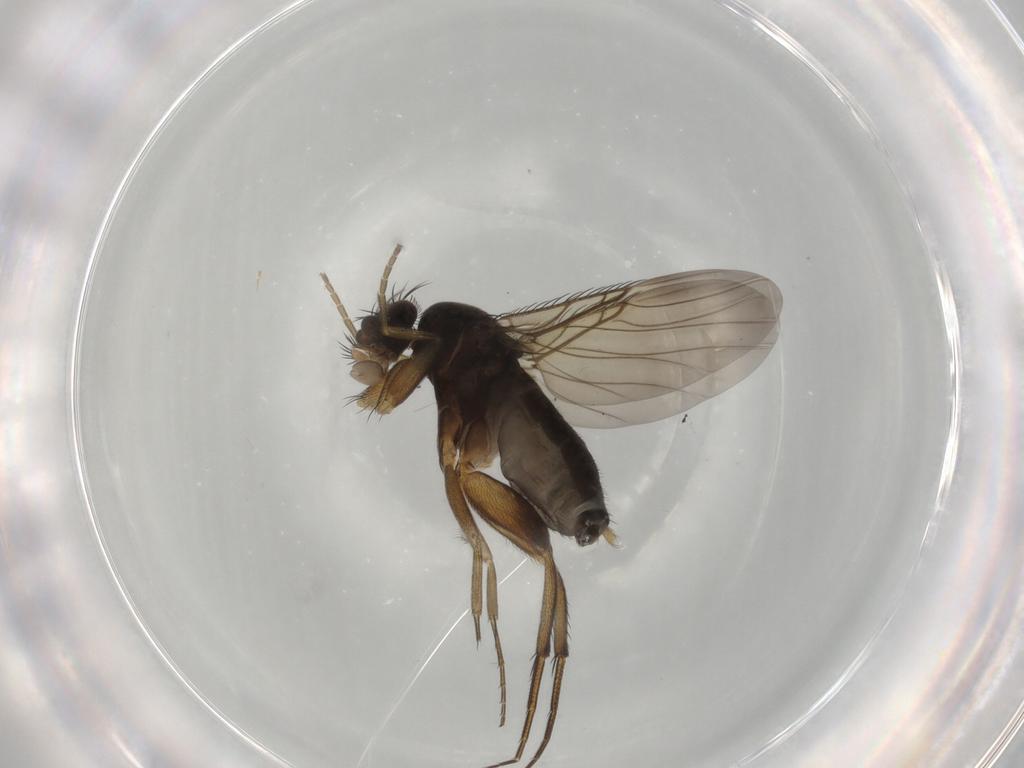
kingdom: Animalia
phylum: Arthropoda
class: Insecta
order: Diptera
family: Phoridae
